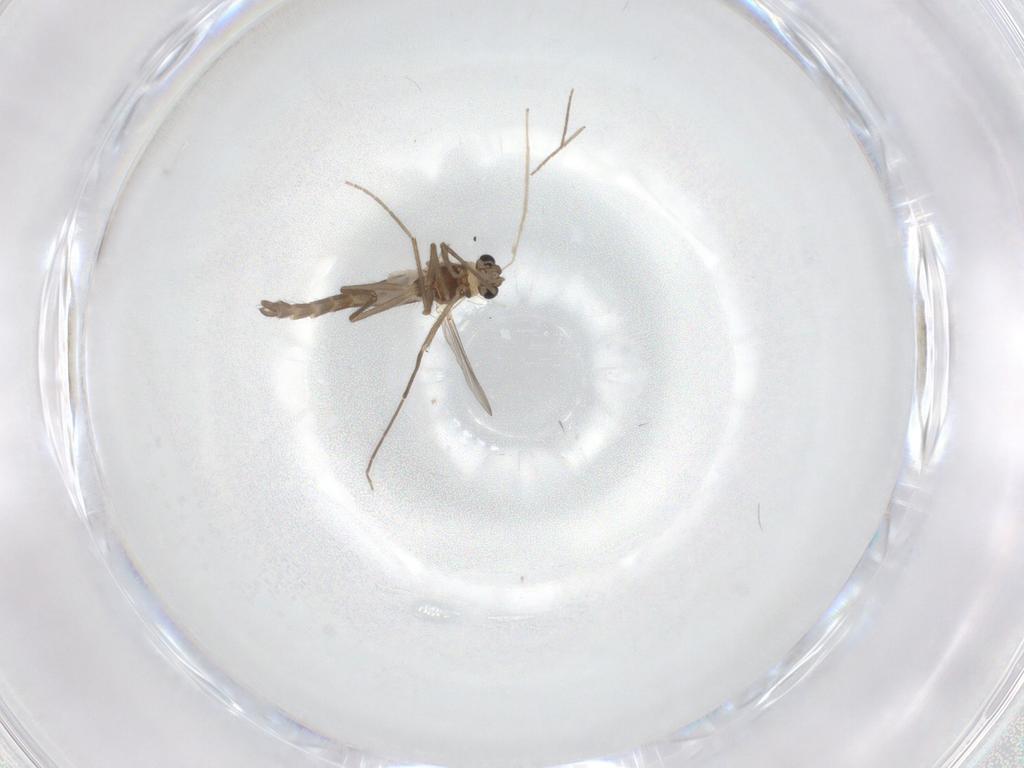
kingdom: Animalia
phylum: Arthropoda
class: Insecta
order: Diptera
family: Chironomidae
